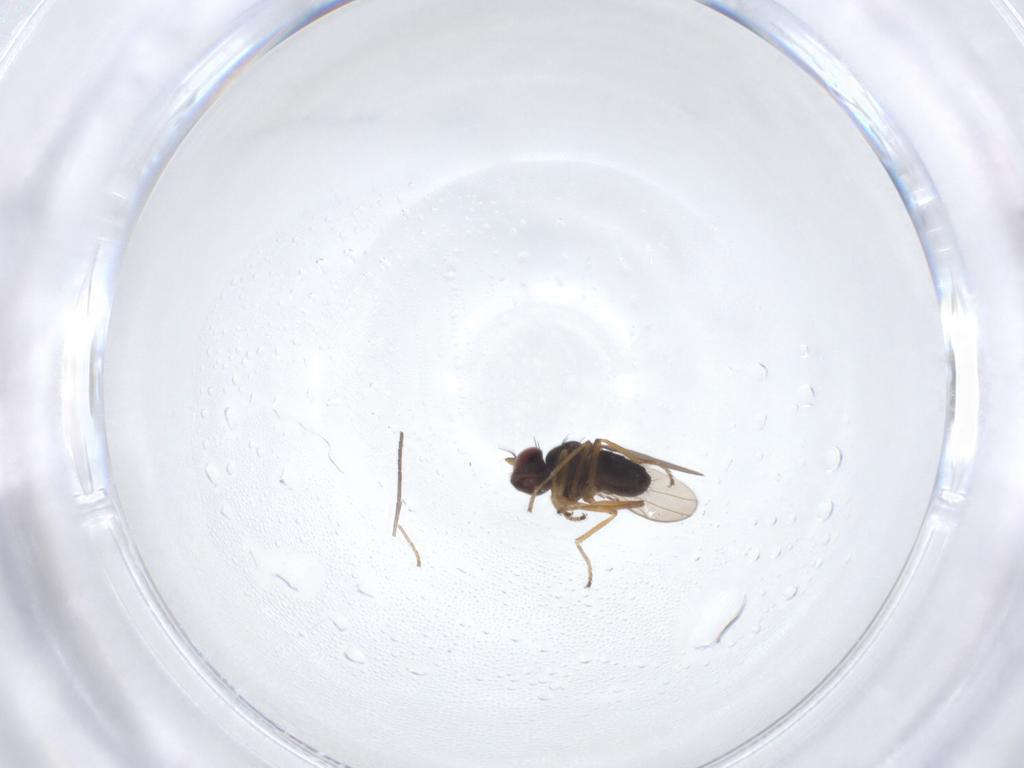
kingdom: Animalia
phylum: Arthropoda
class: Insecta
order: Diptera
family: Ephydridae
